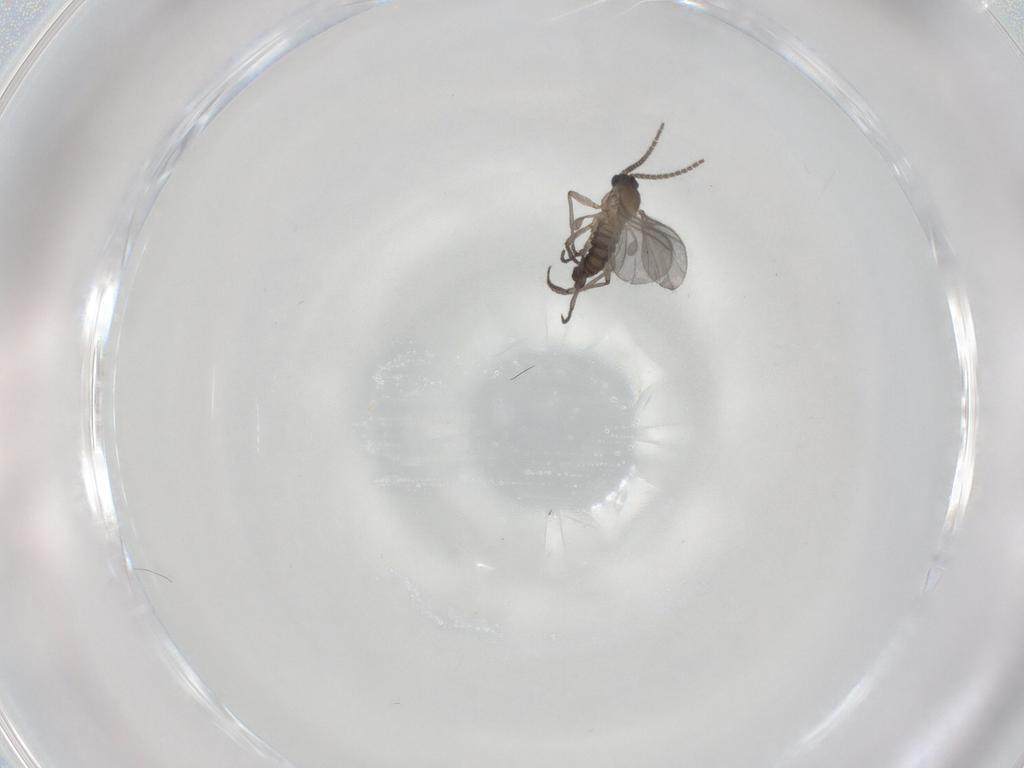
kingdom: Animalia
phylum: Arthropoda
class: Insecta
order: Diptera
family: Sciaridae
